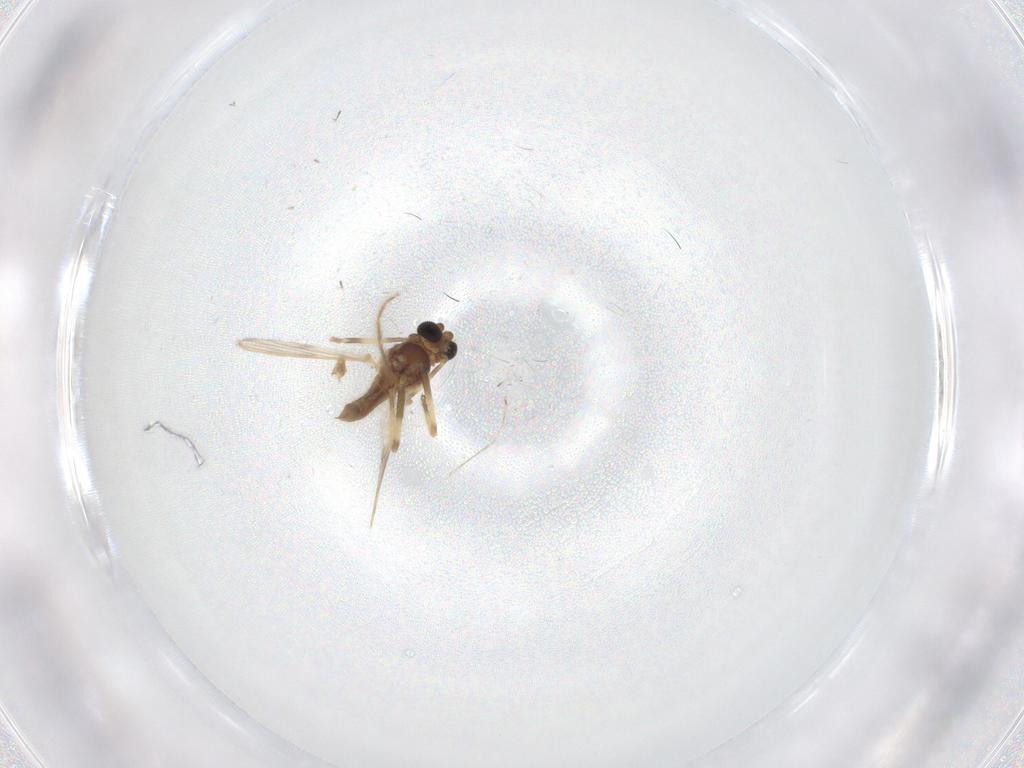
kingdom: Animalia
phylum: Arthropoda
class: Insecta
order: Diptera
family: Chironomidae
